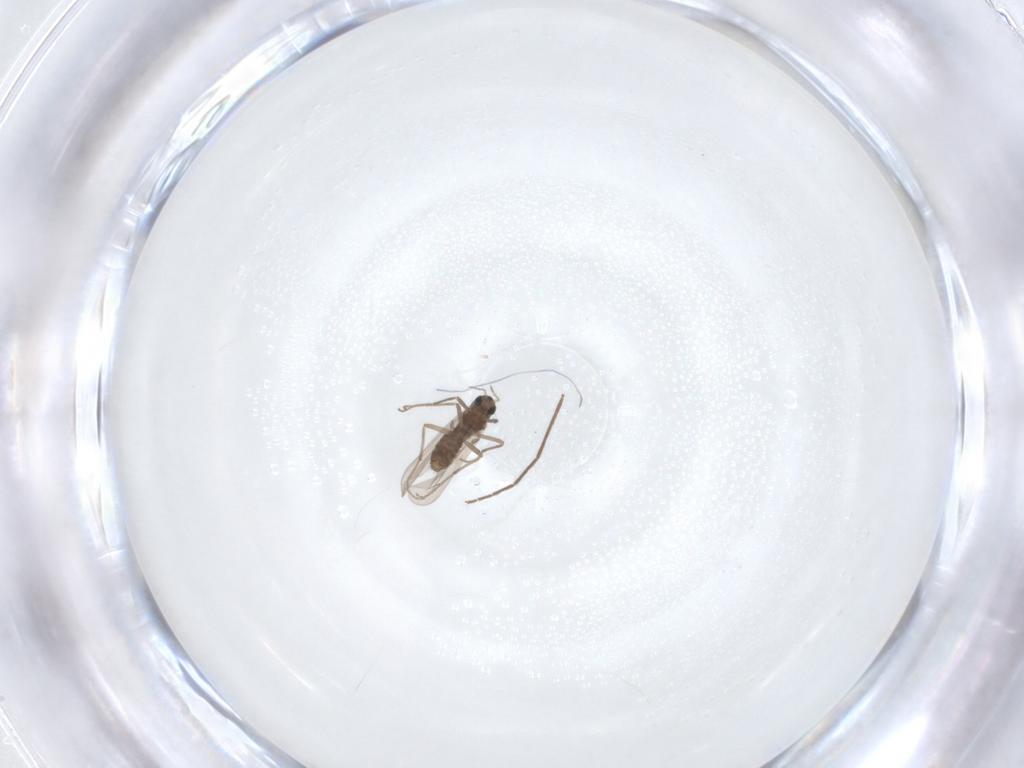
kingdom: Animalia
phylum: Arthropoda
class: Insecta
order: Diptera
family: Chironomidae
